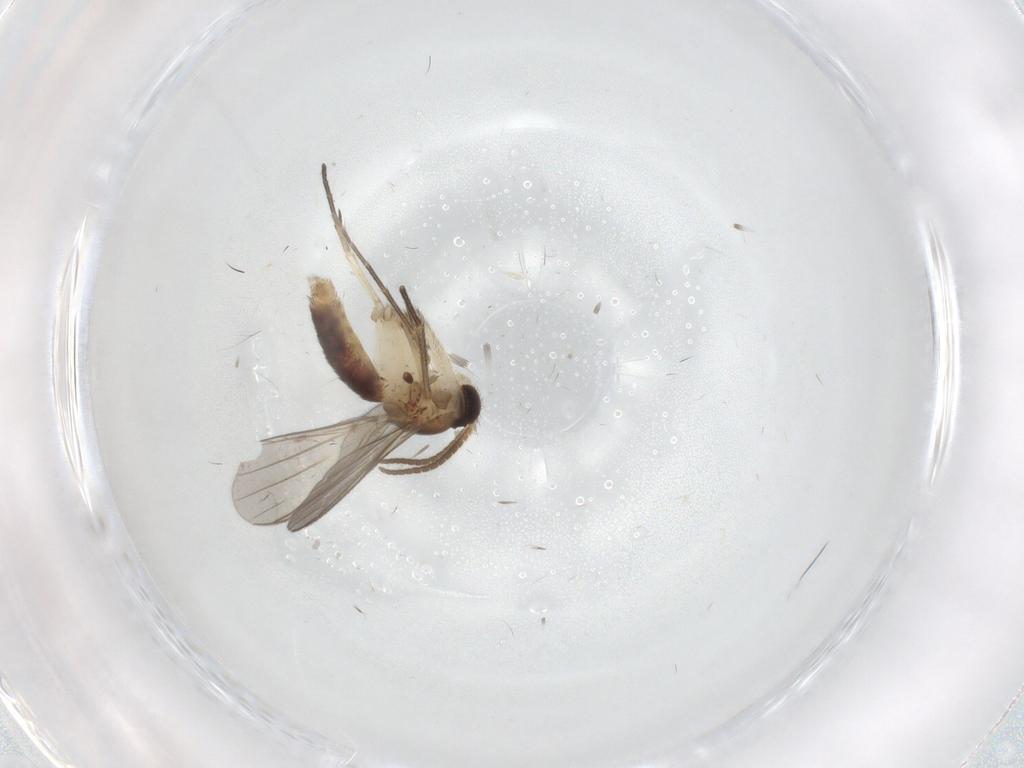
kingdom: Animalia
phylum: Arthropoda
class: Insecta
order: Diptera
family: Mycetophilidae
